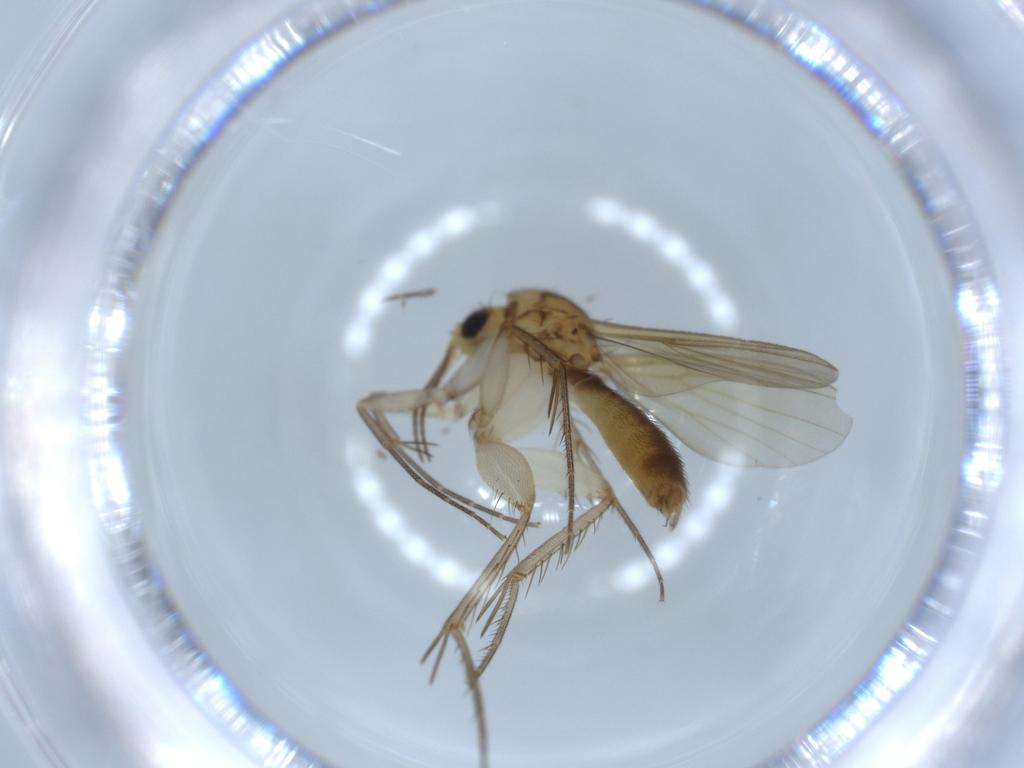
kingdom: Animalia
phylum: Arthropoda
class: Insecta
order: Diptera
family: Mycetophilidae
